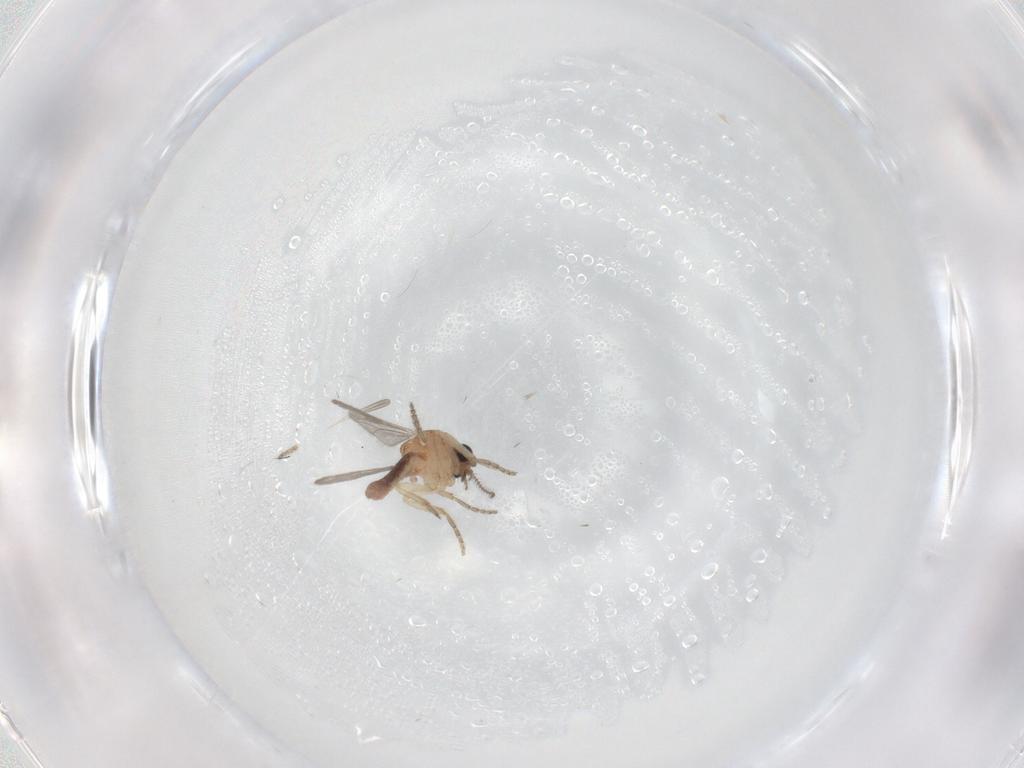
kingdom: Animalia
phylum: Arthropoda
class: Insecta
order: Diptera
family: Ceratopogonidae
